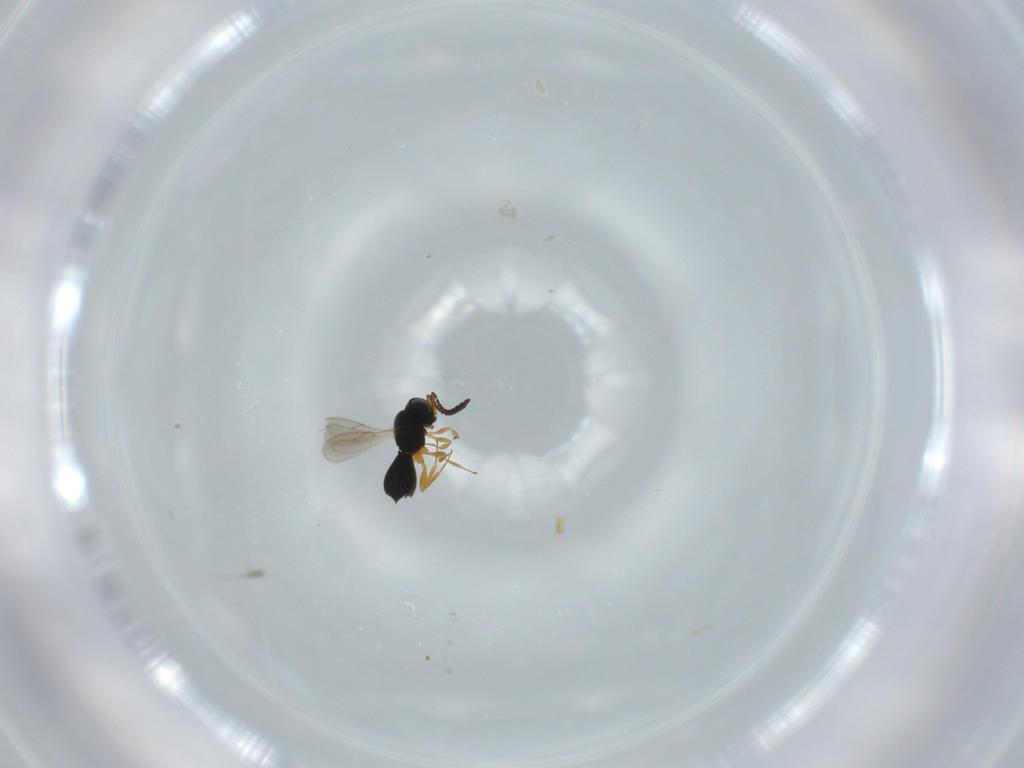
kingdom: Animalia
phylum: Arthropoda
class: Insecta
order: Hymenoptera
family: Scelionidae
